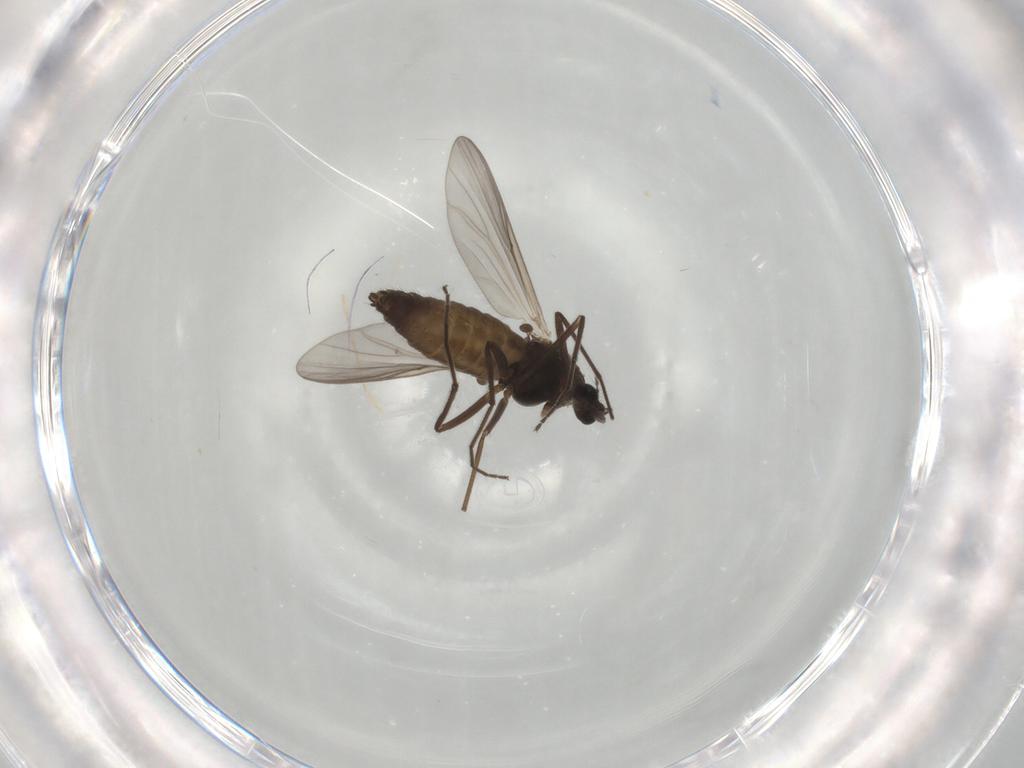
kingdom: Animalia
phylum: Arthropoda
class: Insecta
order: Diptera
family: Chironomidae
